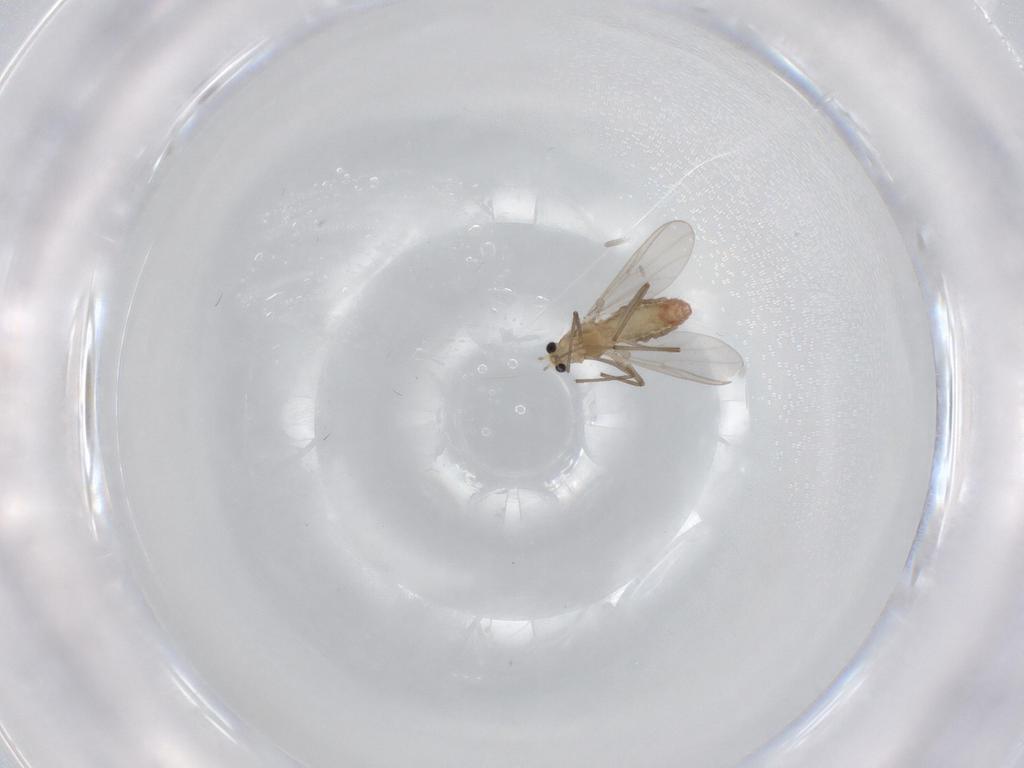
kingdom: Animalia
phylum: Arthropoda
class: Insecta
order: Diptera
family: Chironomidae
